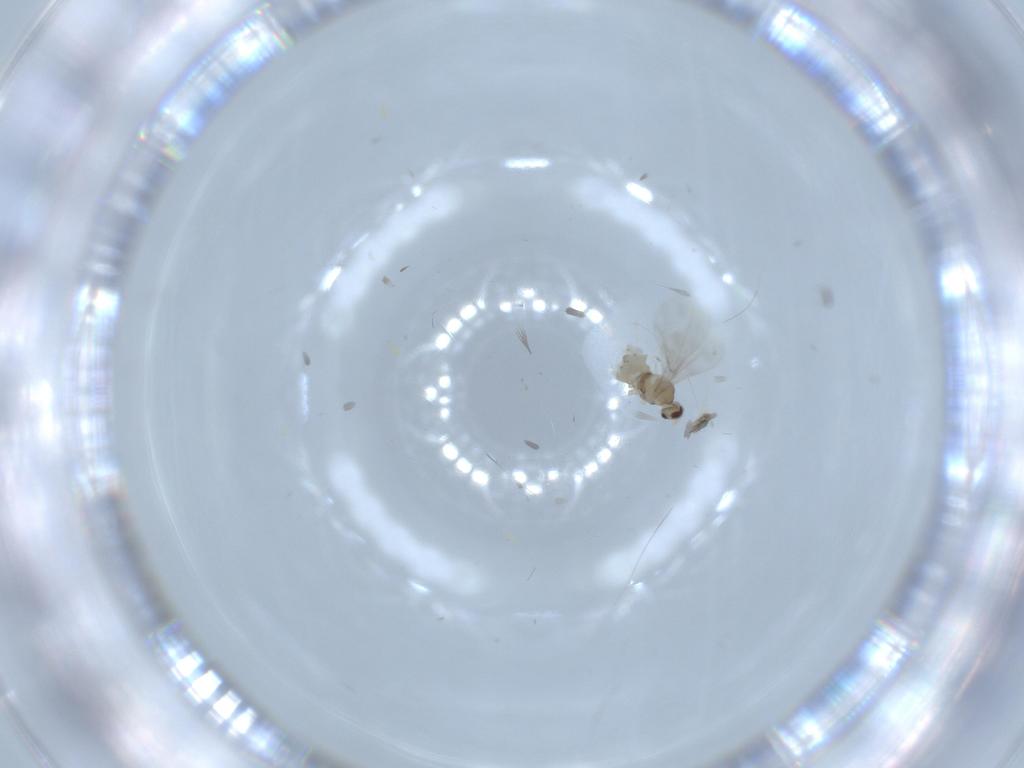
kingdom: Animalia
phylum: Arthropoda
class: Insecta
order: Diptera
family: Cecidomyiidae
